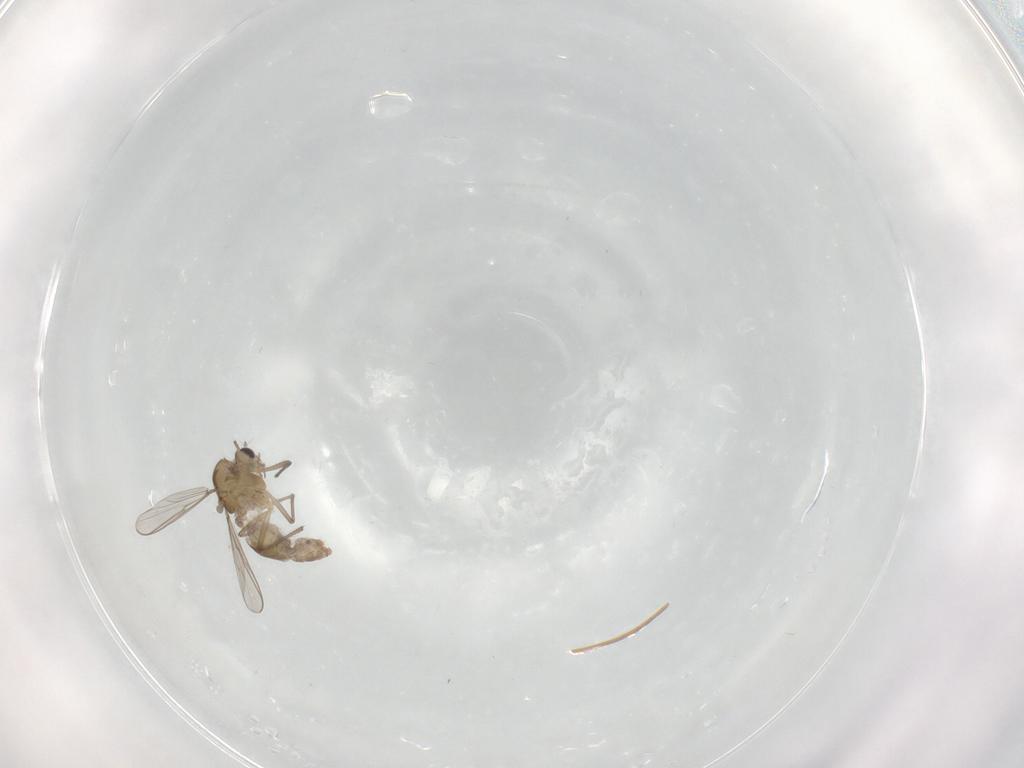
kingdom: Animalia
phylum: Arthropoda
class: Insecta
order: Diptera
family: Chironomidae
